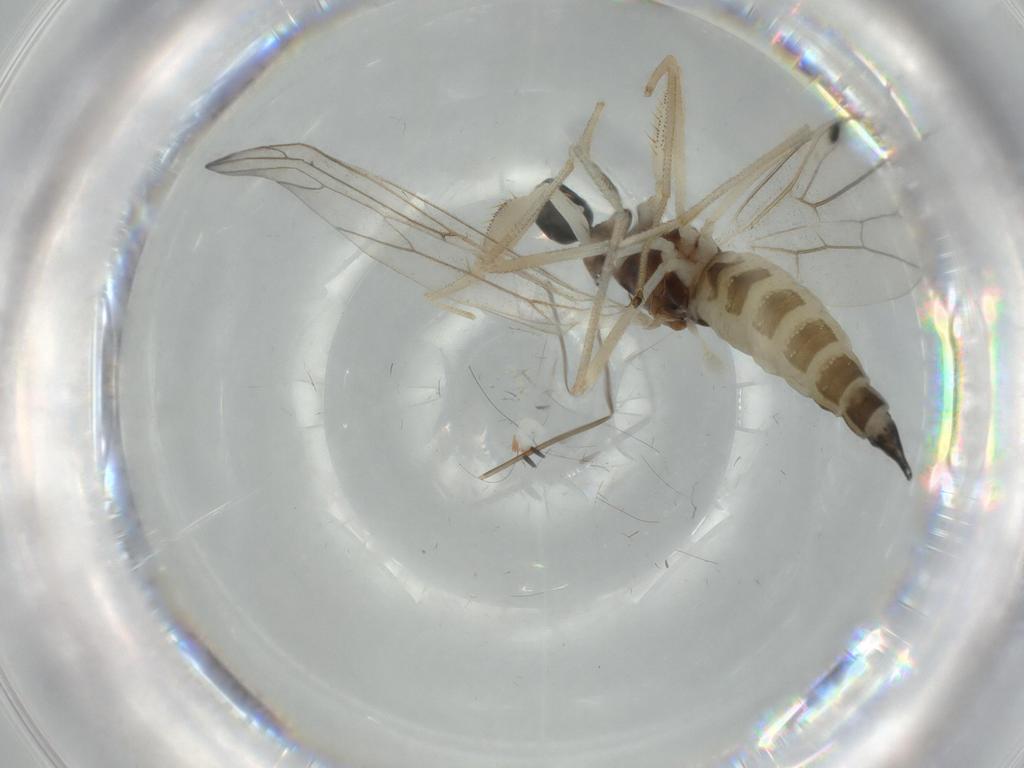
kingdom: Animalia
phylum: Arthropoda
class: Insecta
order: Diptera
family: Empididae
